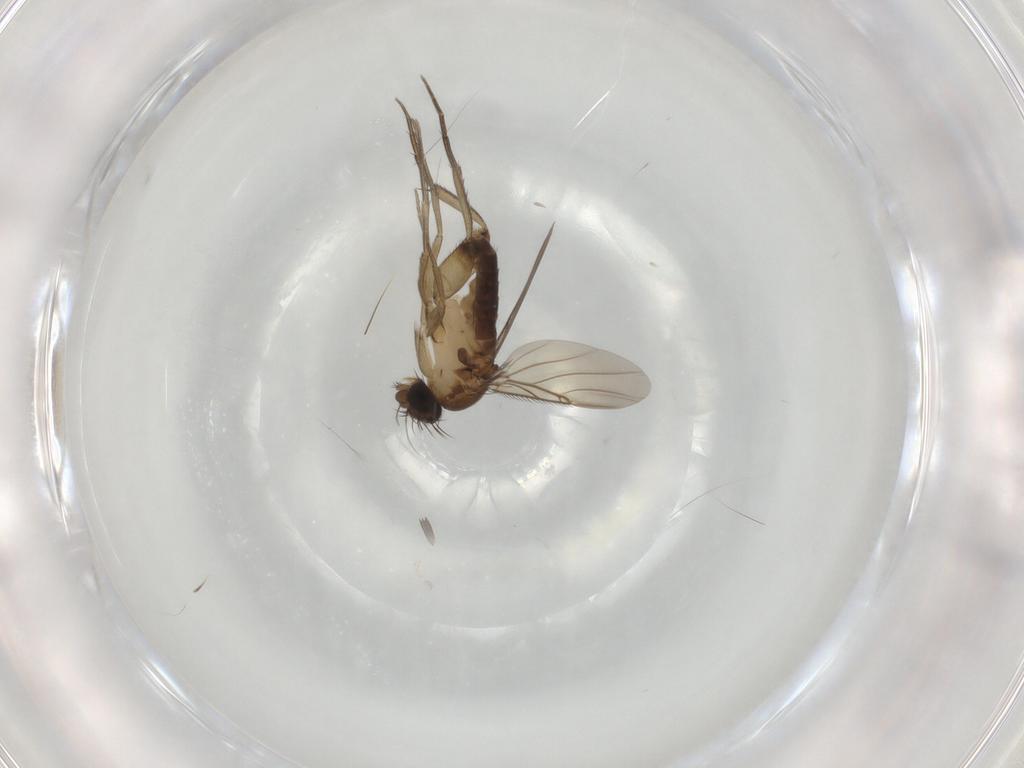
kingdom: Animalia
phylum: Arthropoda
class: Insecta
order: Diptera
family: Phoridae
